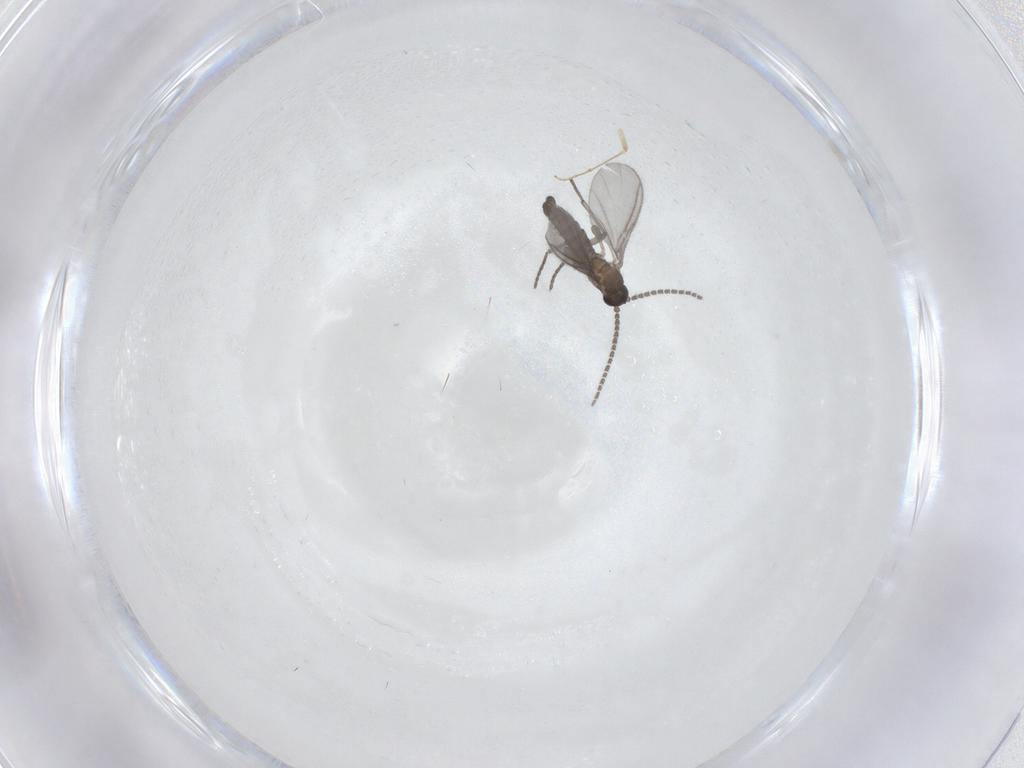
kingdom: Animalia
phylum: Arthropoda
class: Insecta
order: Diptera
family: Sciaridae
